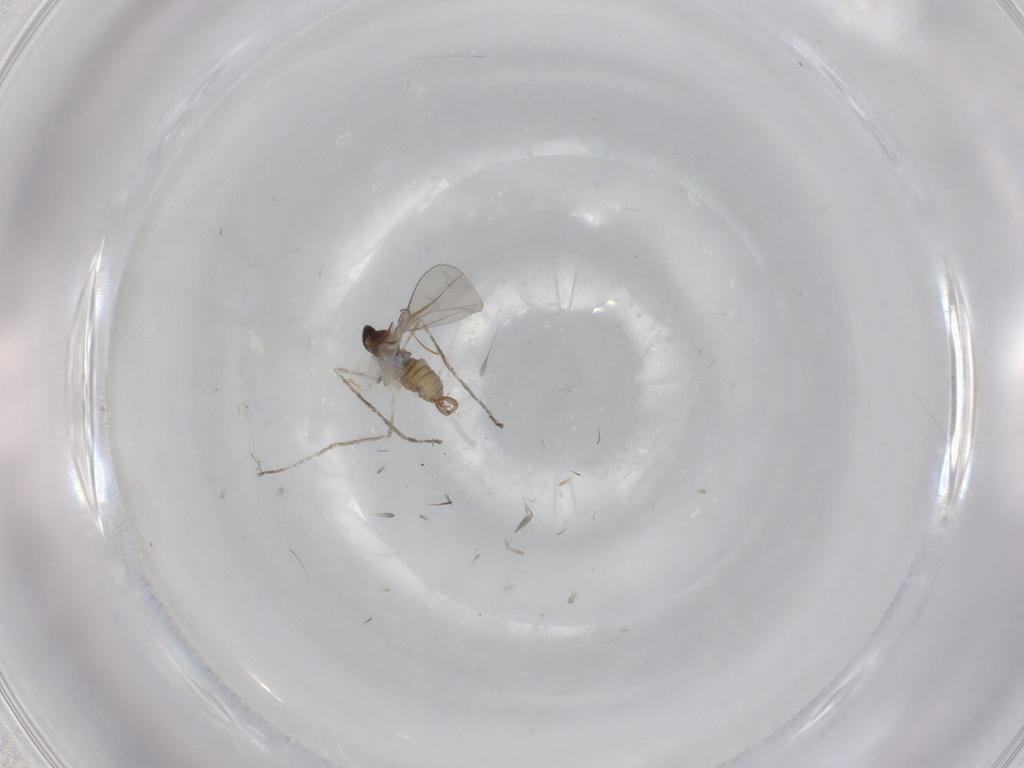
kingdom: Animalia
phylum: Arthropoda
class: Insecta
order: Diptera
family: Cecidomyiidae
